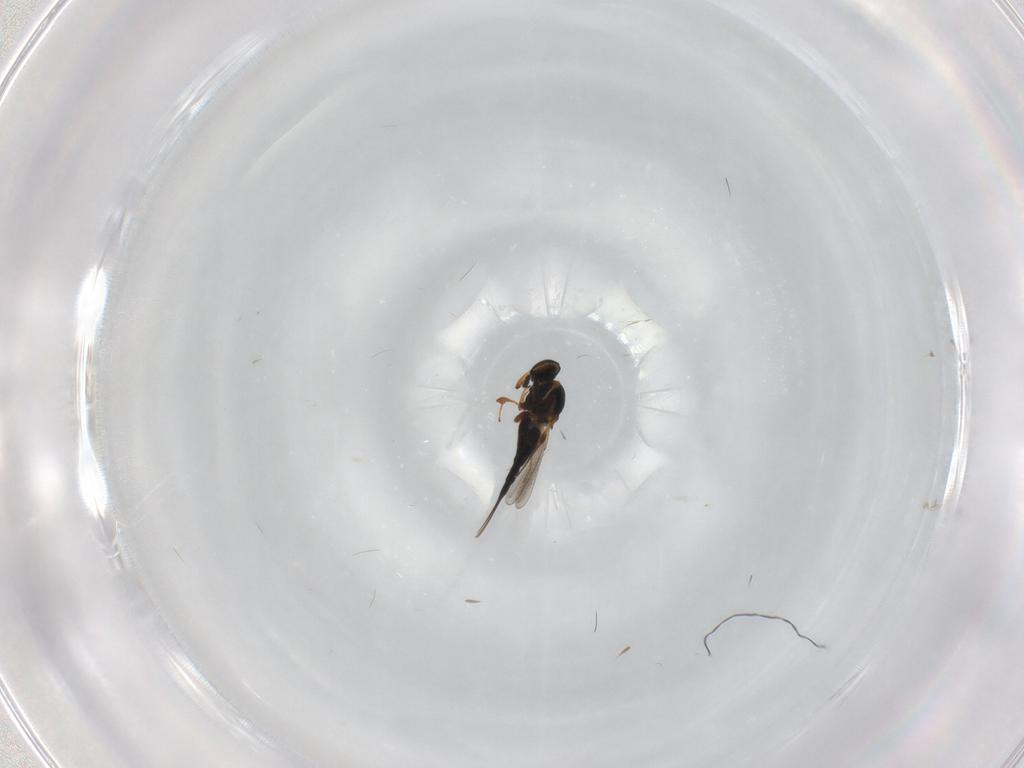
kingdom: Animalia
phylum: Arthropoda
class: Insecta
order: Hymenoptera
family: Platygastridae
